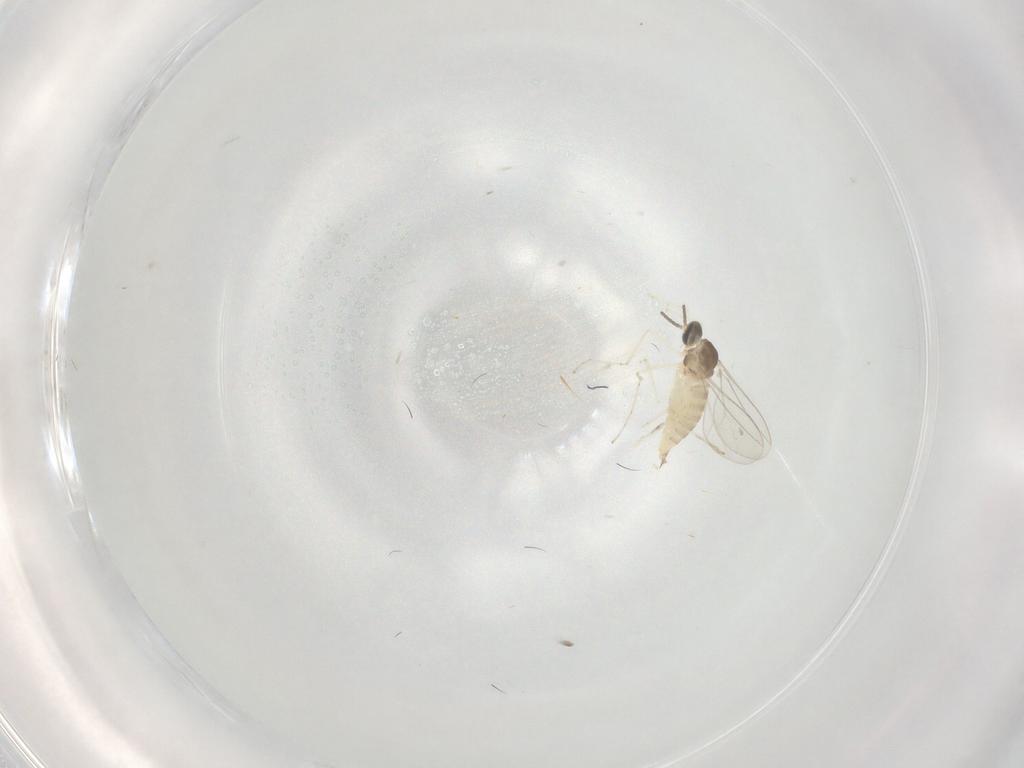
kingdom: Animalia
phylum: Arthropoda
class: Insecta
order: Diptera
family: Cecidomyiidae
